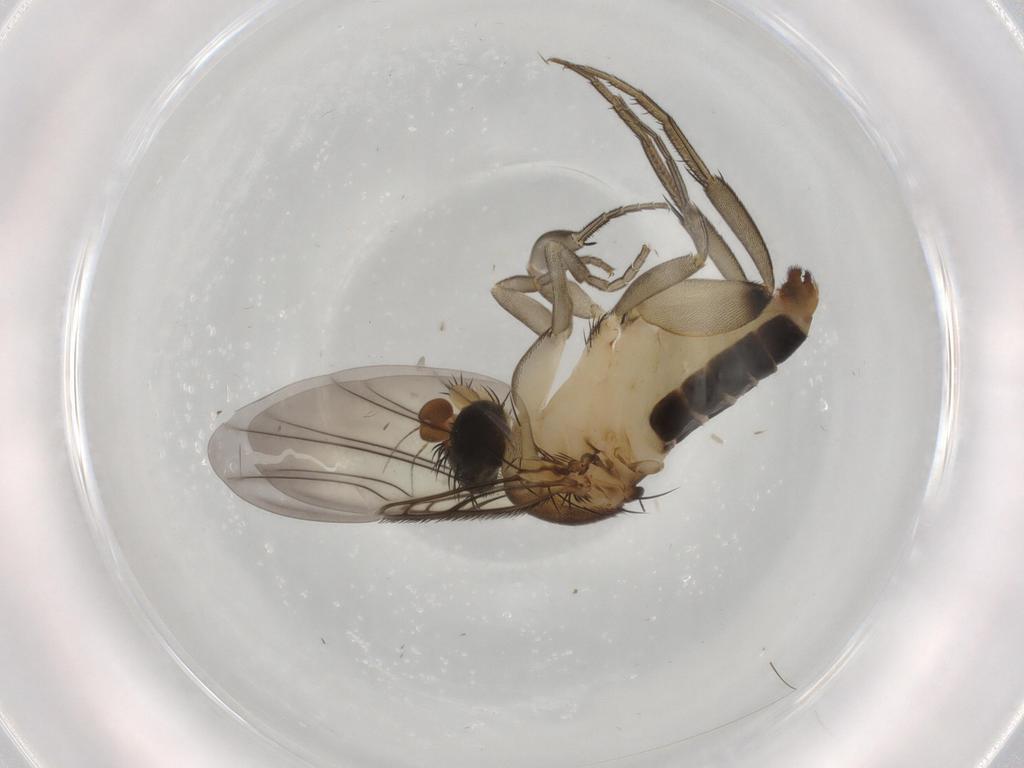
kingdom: Animalia
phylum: Arthropoda
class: Insecta
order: Diptera
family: Phoridae
